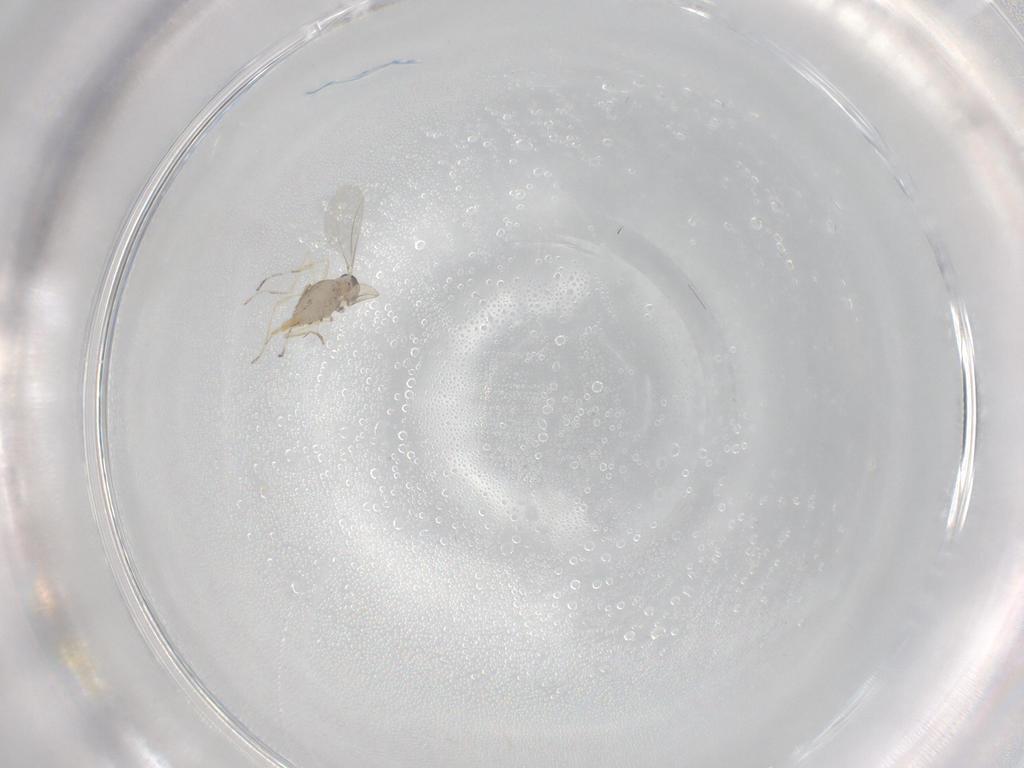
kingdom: Animalia
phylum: Arthropoda
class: Insecta
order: Diptera
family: Cecidomyiidae
